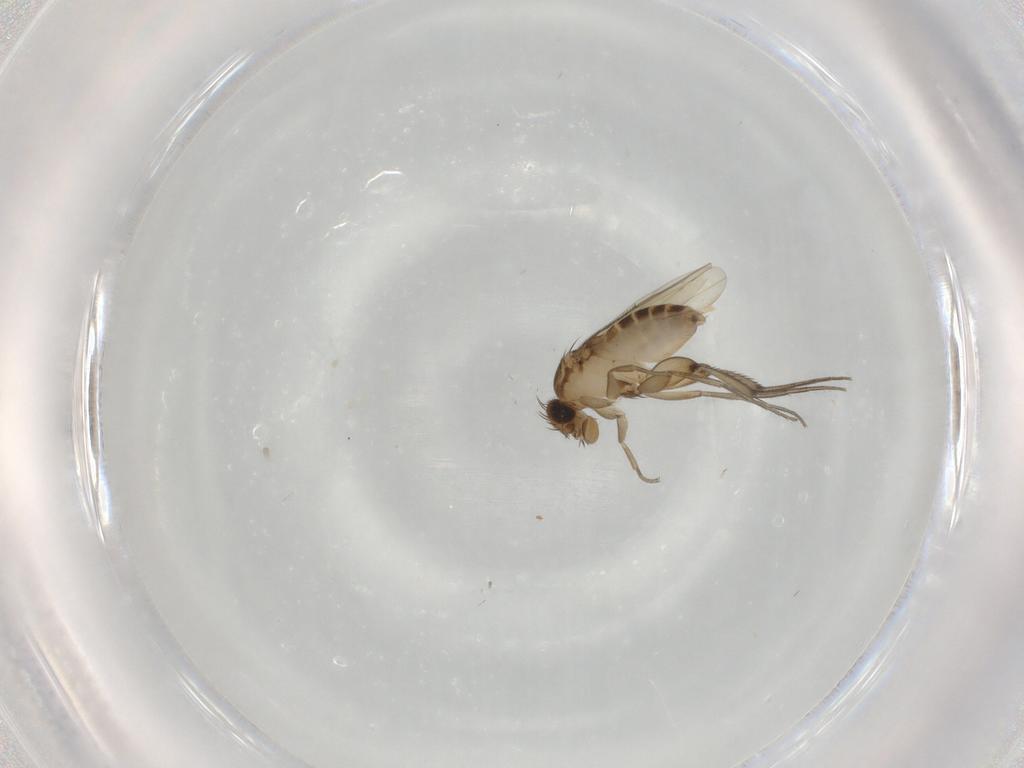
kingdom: Animalia
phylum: Arthropoda
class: Insecta
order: Diptera
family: Phoridae
